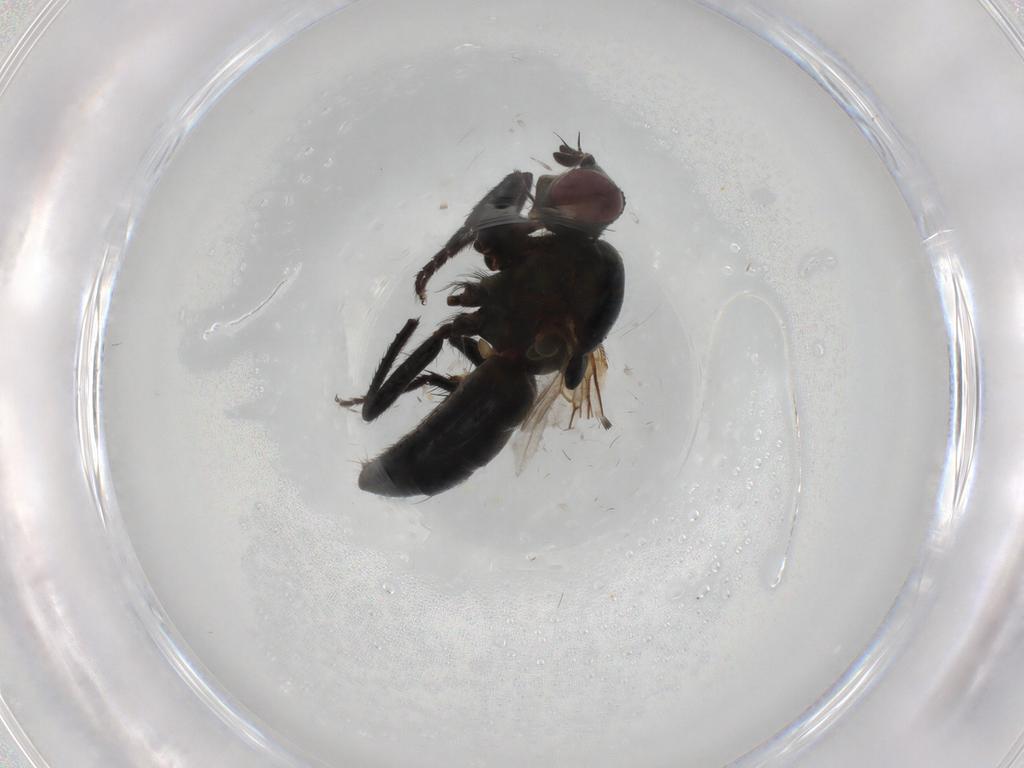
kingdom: Animalia
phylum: Arthropoda
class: Insecta
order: Diptera
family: Muscidae
